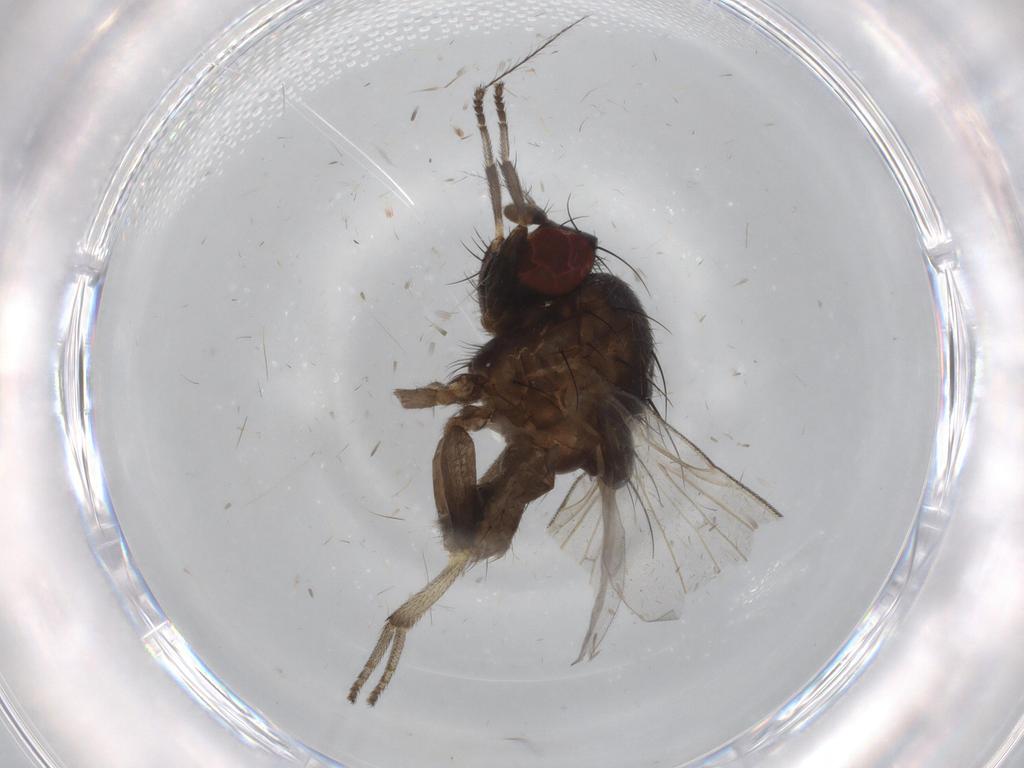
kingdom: Animalia
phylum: Arthropoda
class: Insecta
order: Diptera
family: Lauxaniidae
